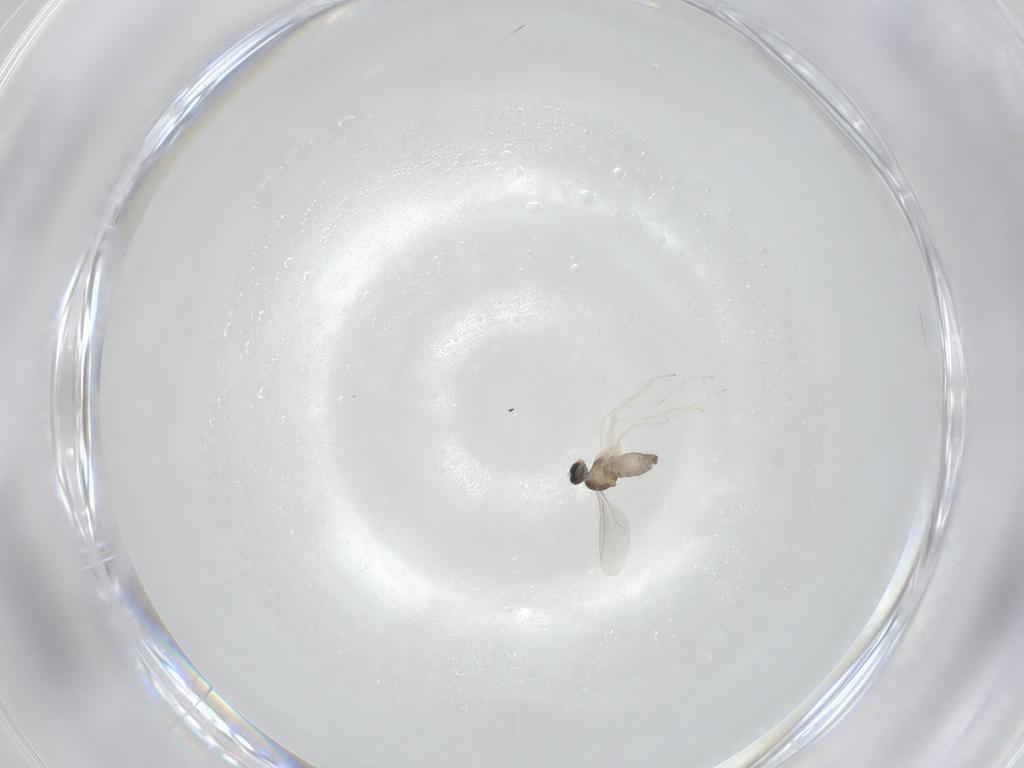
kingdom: Animalia
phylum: Arthropoda
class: Insecta
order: Diptera
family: Cecidomyiidae
